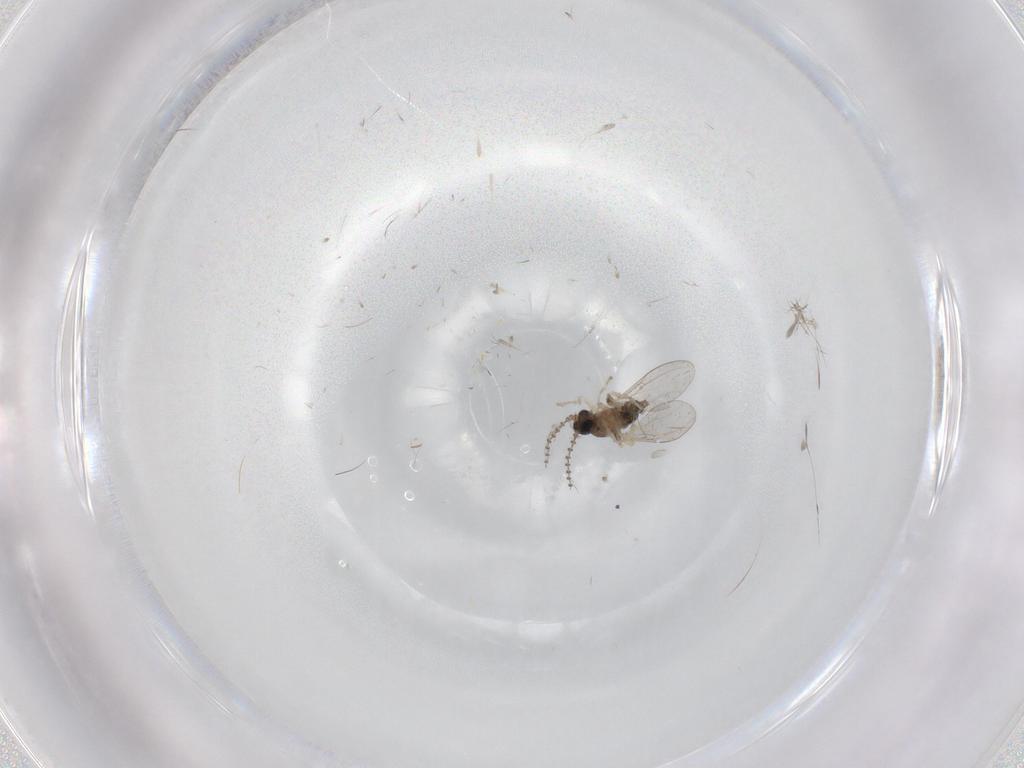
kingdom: Animalia
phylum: Arthropoda
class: Insecta
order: Diptera
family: Cecidomyiidae
